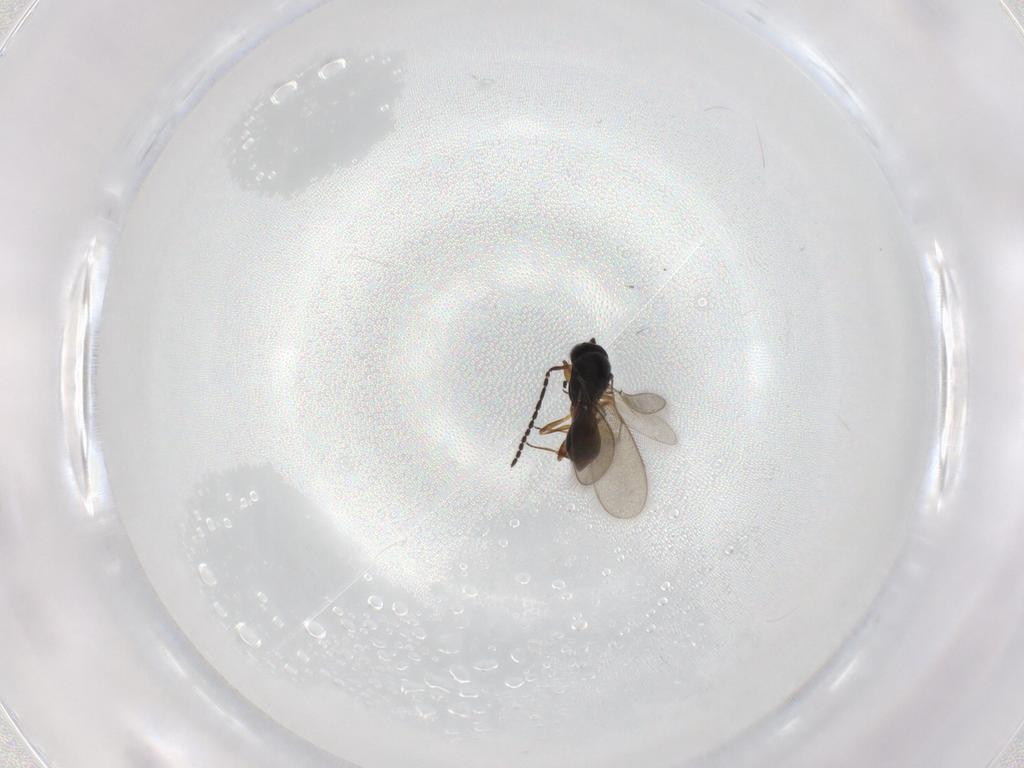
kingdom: Animalia
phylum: Arthropoda
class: Insecta
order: Hymenoptera
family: Scelionidae
